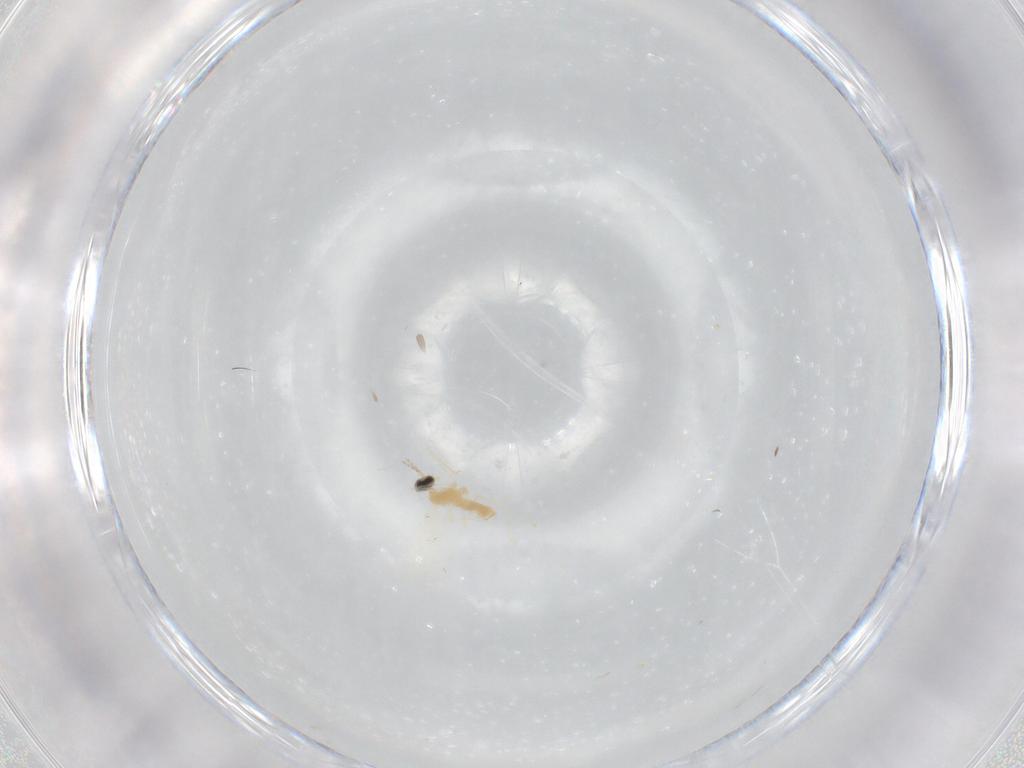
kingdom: Animalia
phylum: Arthropoda
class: Insecta
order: Diptera
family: Cecidomyiidae
